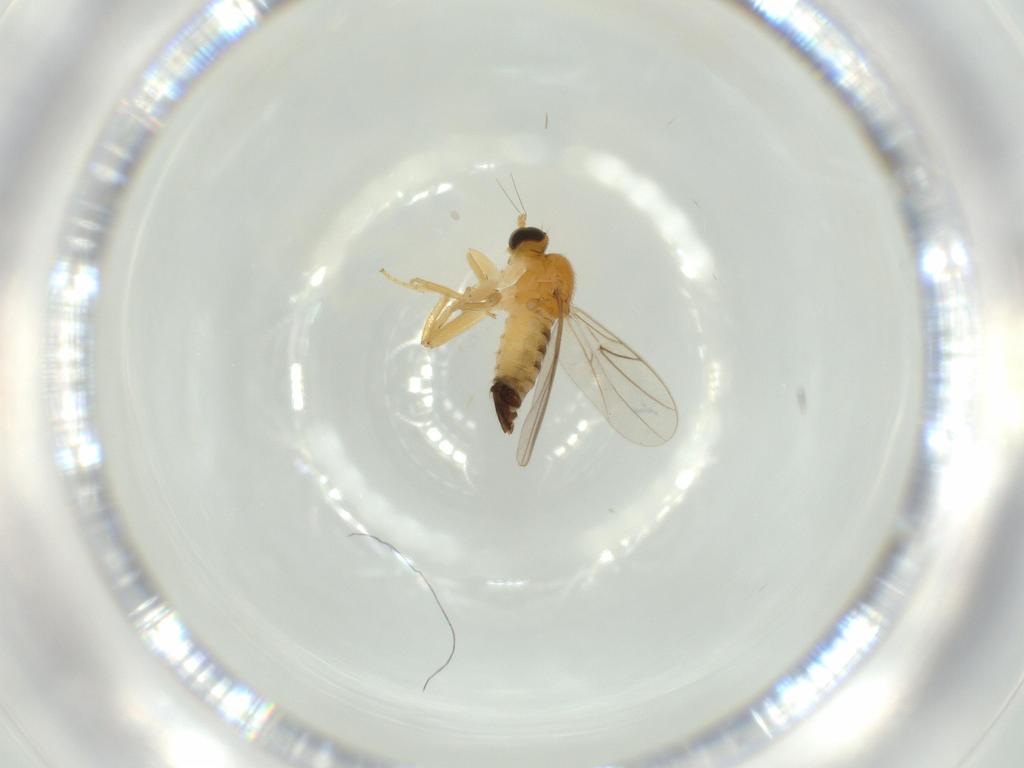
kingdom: Animalia
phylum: Arthropoda
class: Insecta
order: Diptera
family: Hybotidae
